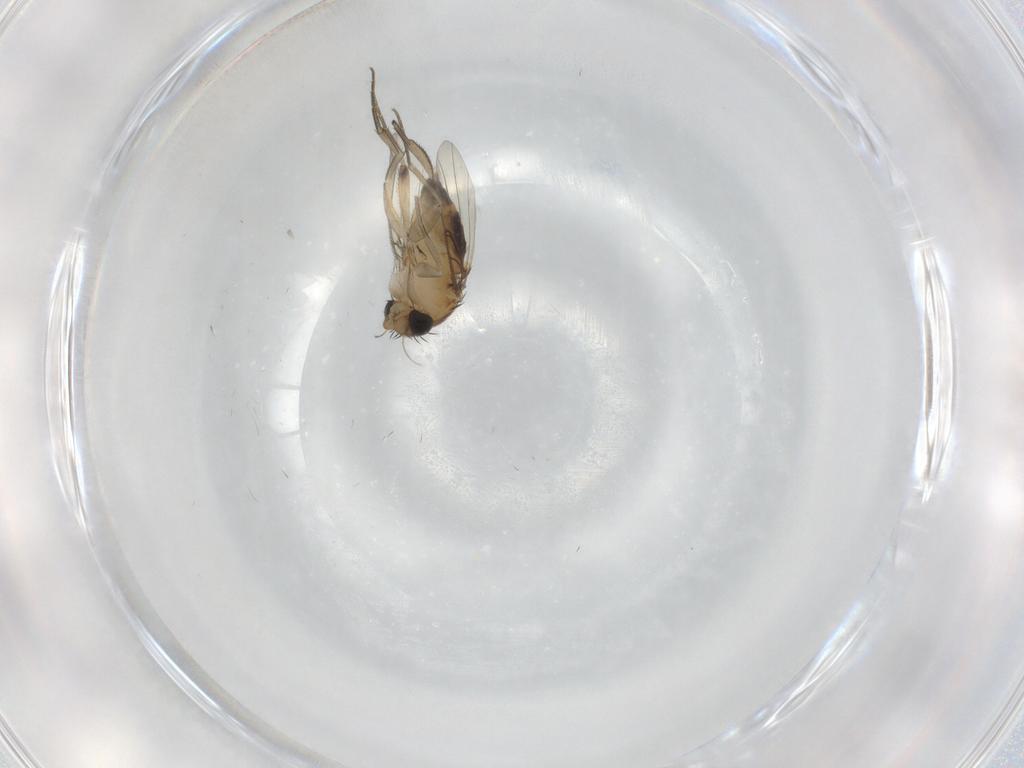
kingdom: Animalia
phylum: Arthropoda
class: Insecta
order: Diptera
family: Phoridae
